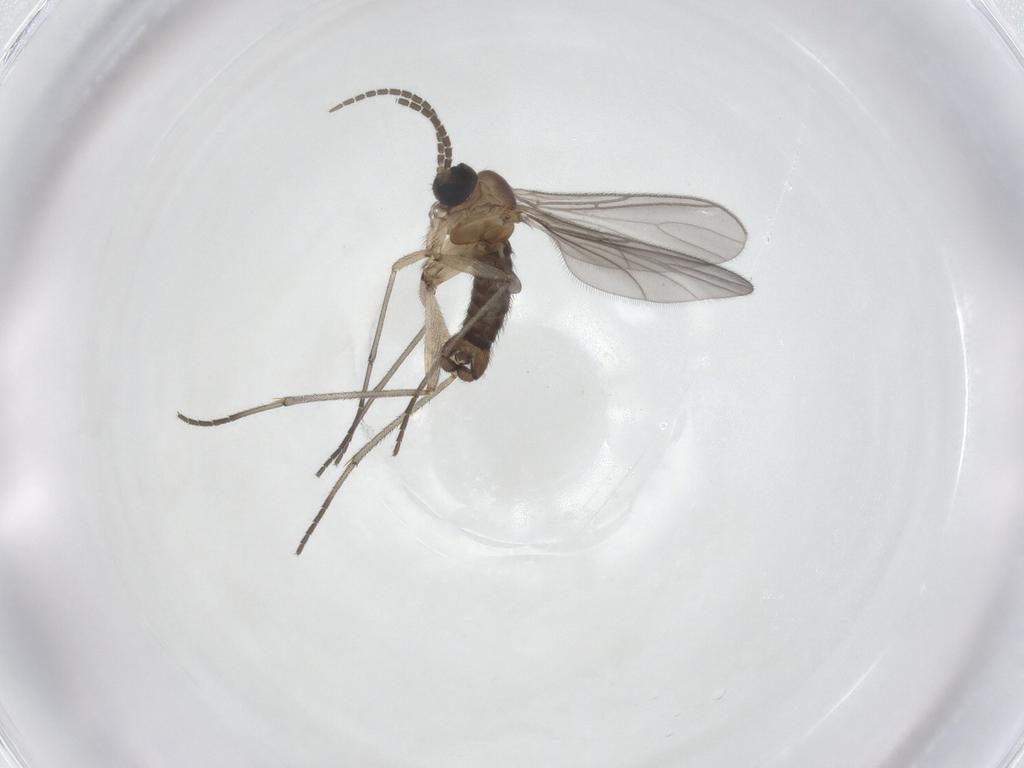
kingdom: Animalia
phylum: Arthropoda
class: Insecta
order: Diptera
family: Sciaridae
